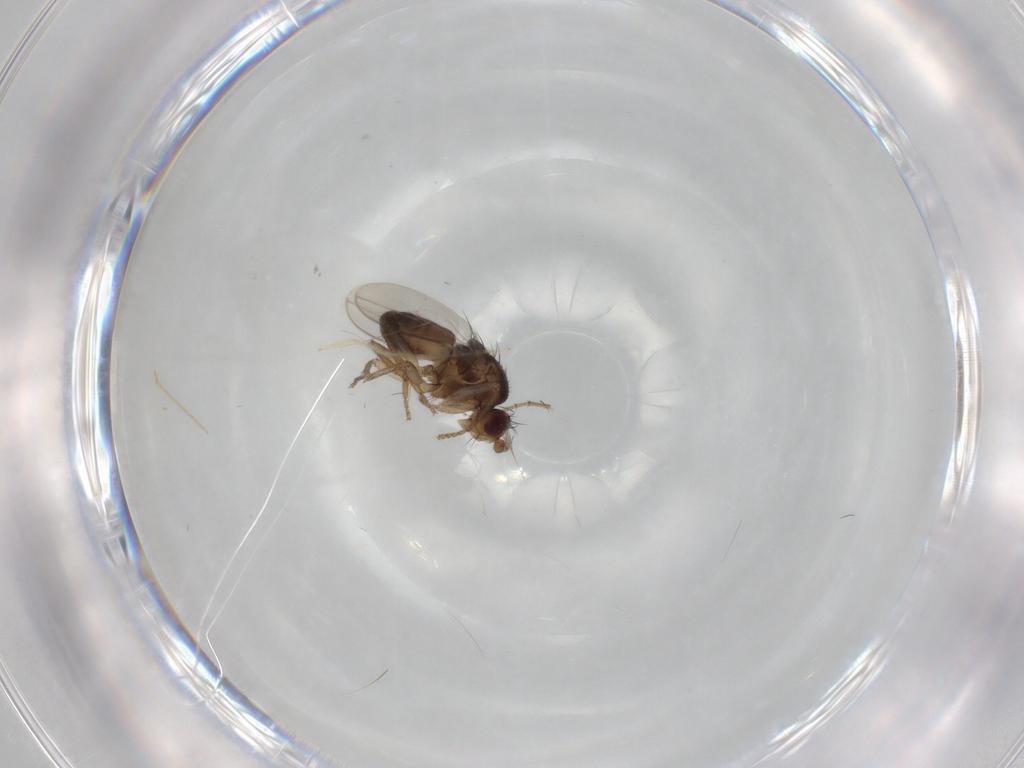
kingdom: Animalia
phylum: Arthropoda
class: Insecta
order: Diptera
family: Sphaeroceridae
